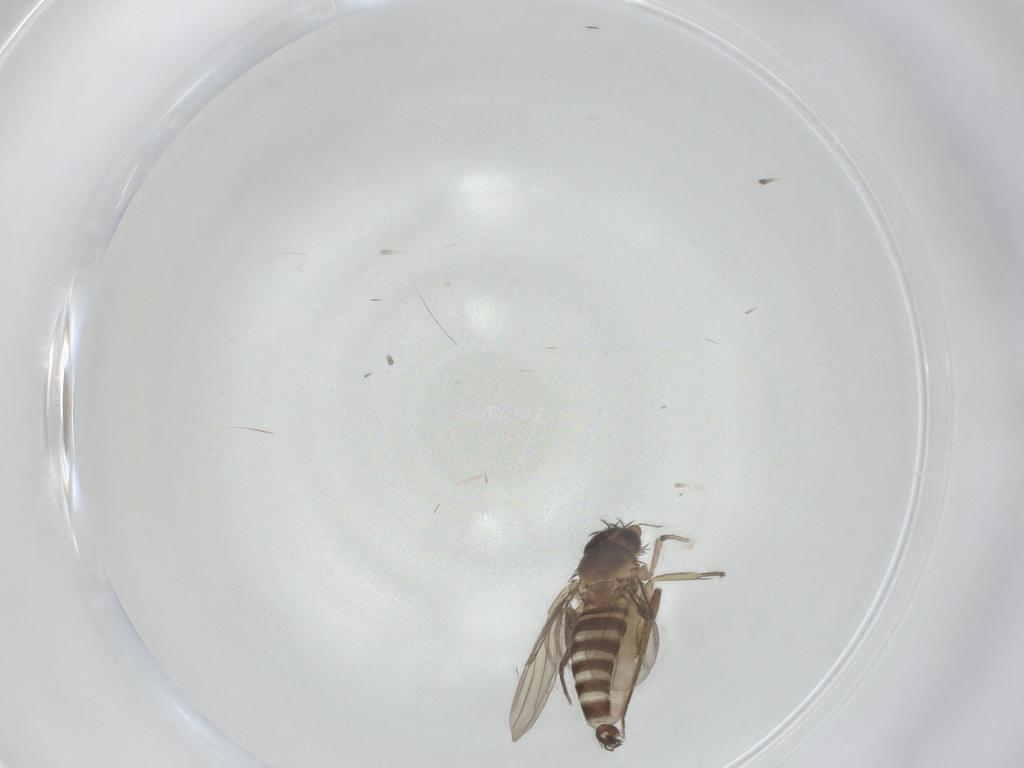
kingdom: Animalia
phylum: Arthropoda
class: Insecta
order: Diptera
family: Phoridae
